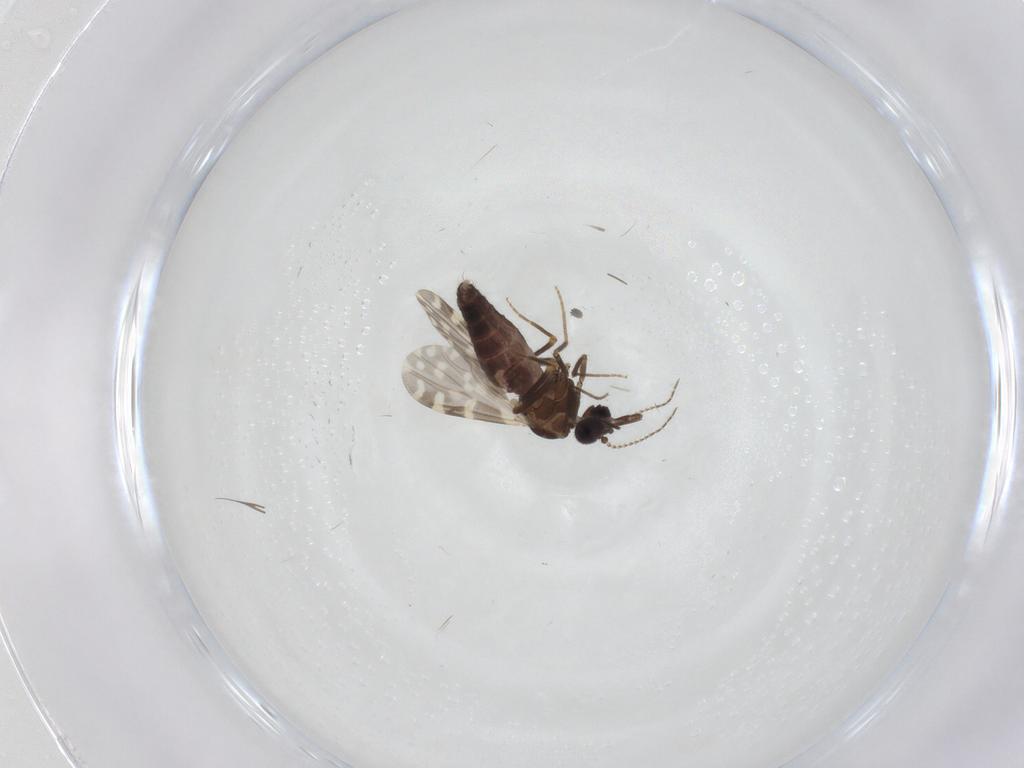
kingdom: Animalia
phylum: Arthropoda
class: Insecta
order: Diptera
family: Ceratopogonidae
